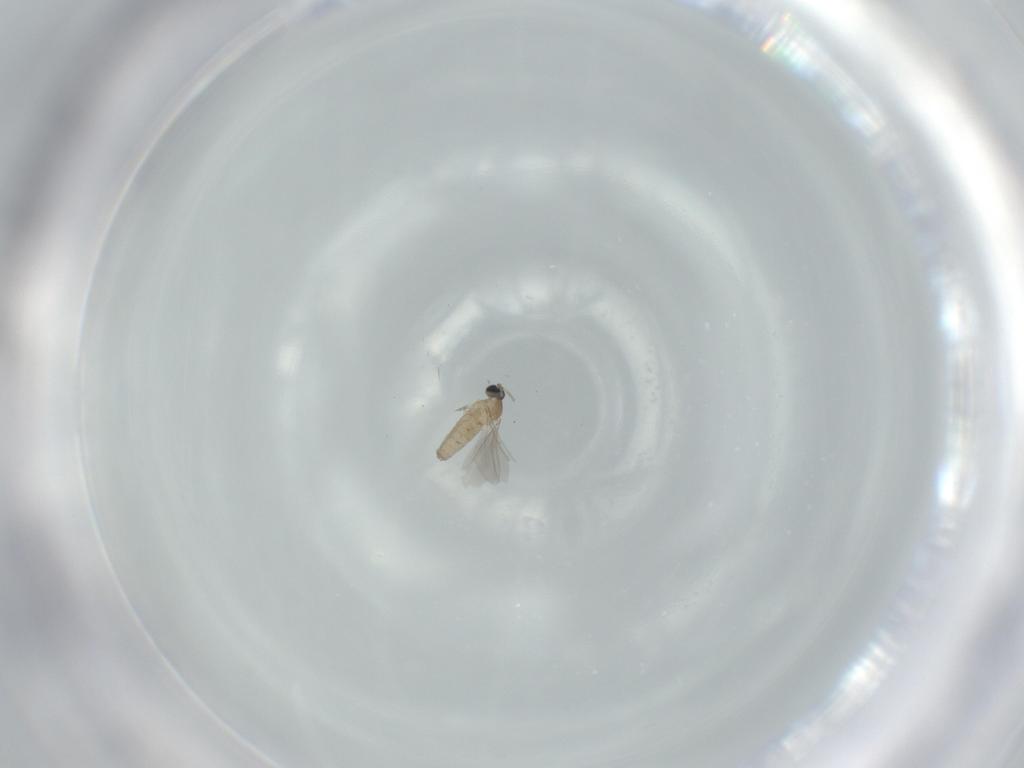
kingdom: Animalia
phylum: Arthropoda
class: Insecta
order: Diptera
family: Cecidomyiidae
